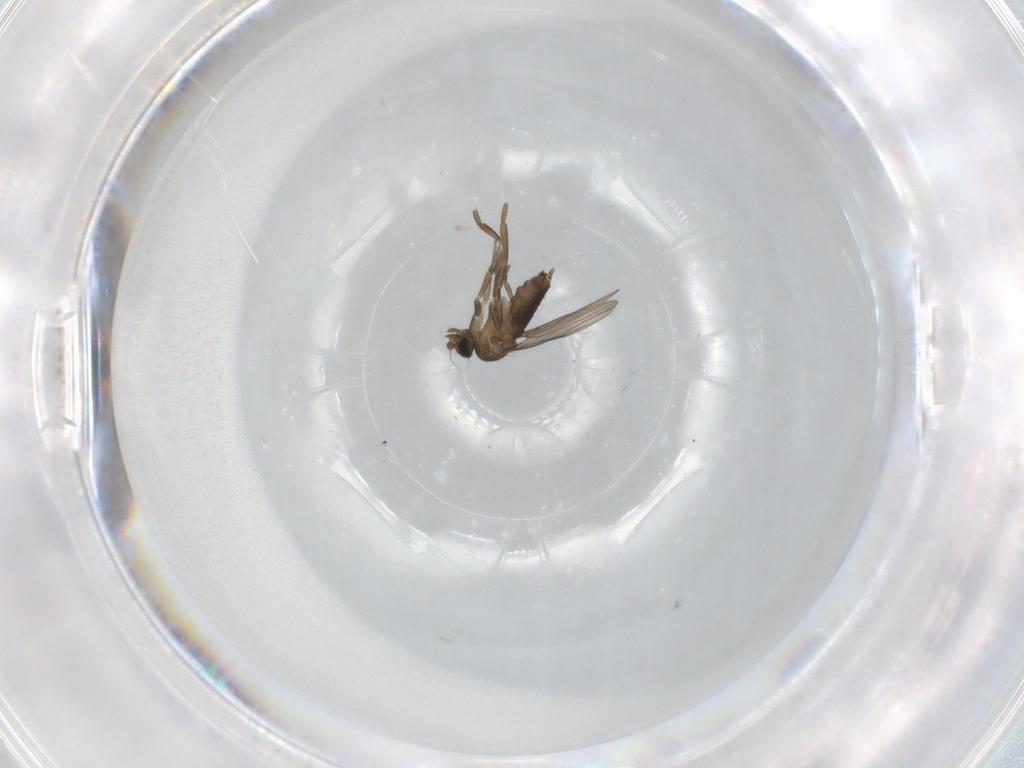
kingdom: Animalia
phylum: Arthropoda
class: Insecta
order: Diptera
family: Phoridae
